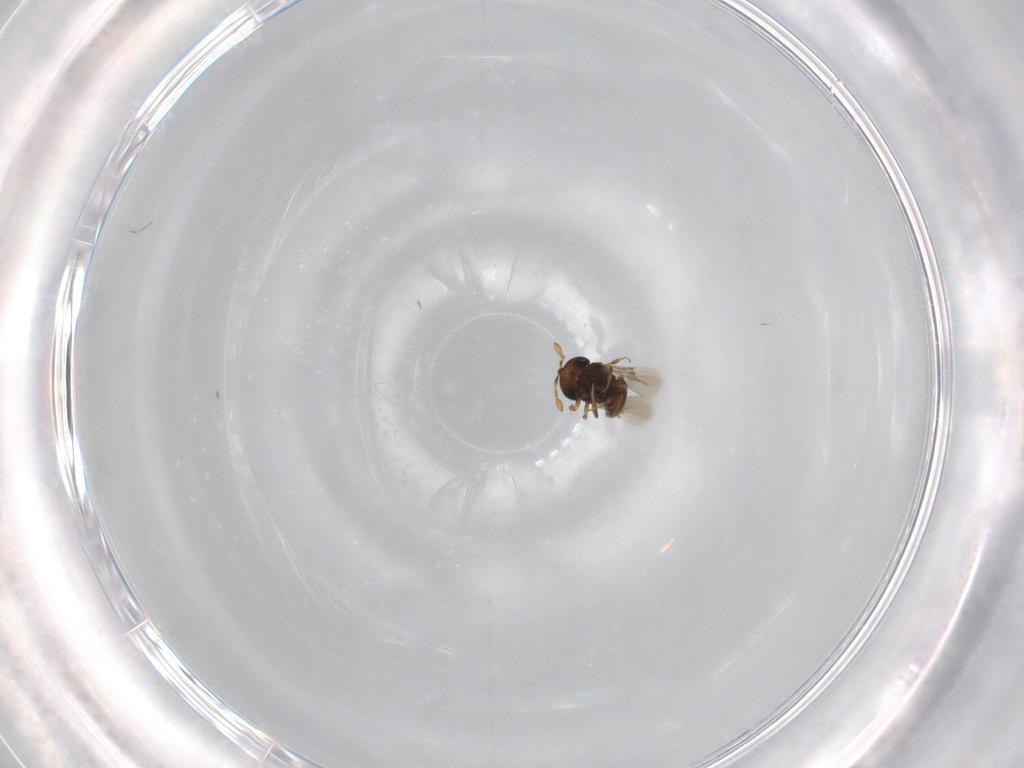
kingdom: Animalia
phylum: Arthropoda
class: Insecta
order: Hymenoptera
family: Scelionidae
